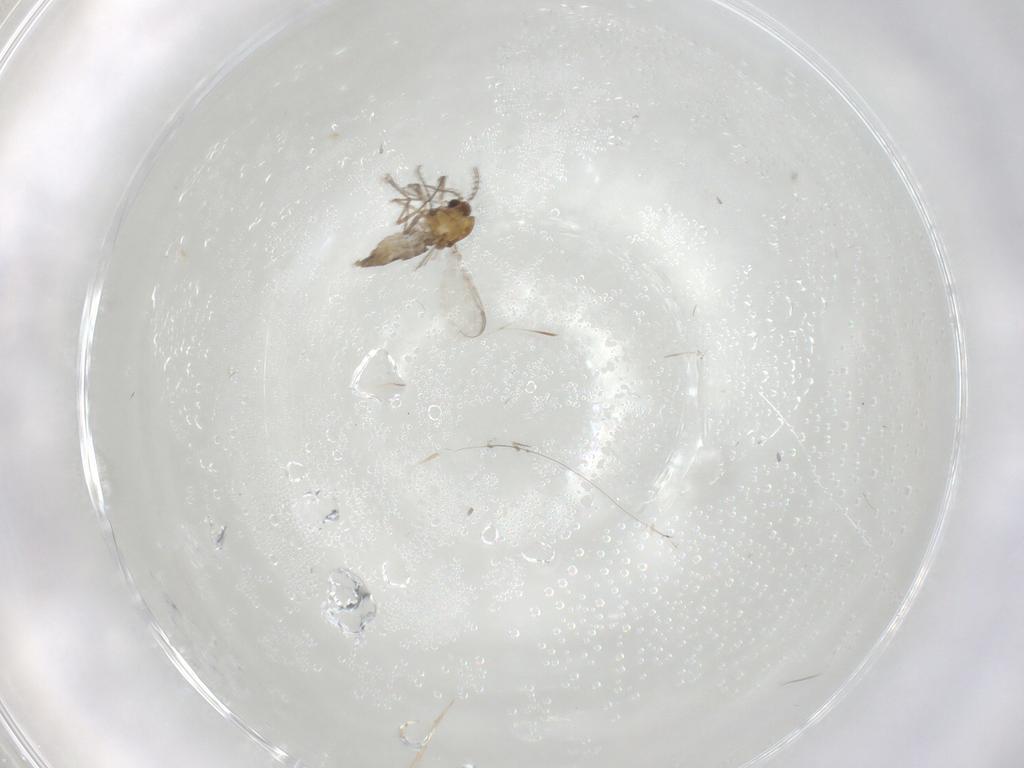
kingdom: Animalia
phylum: Arthropoda
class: Insecta
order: Diptera
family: Chironomidae
